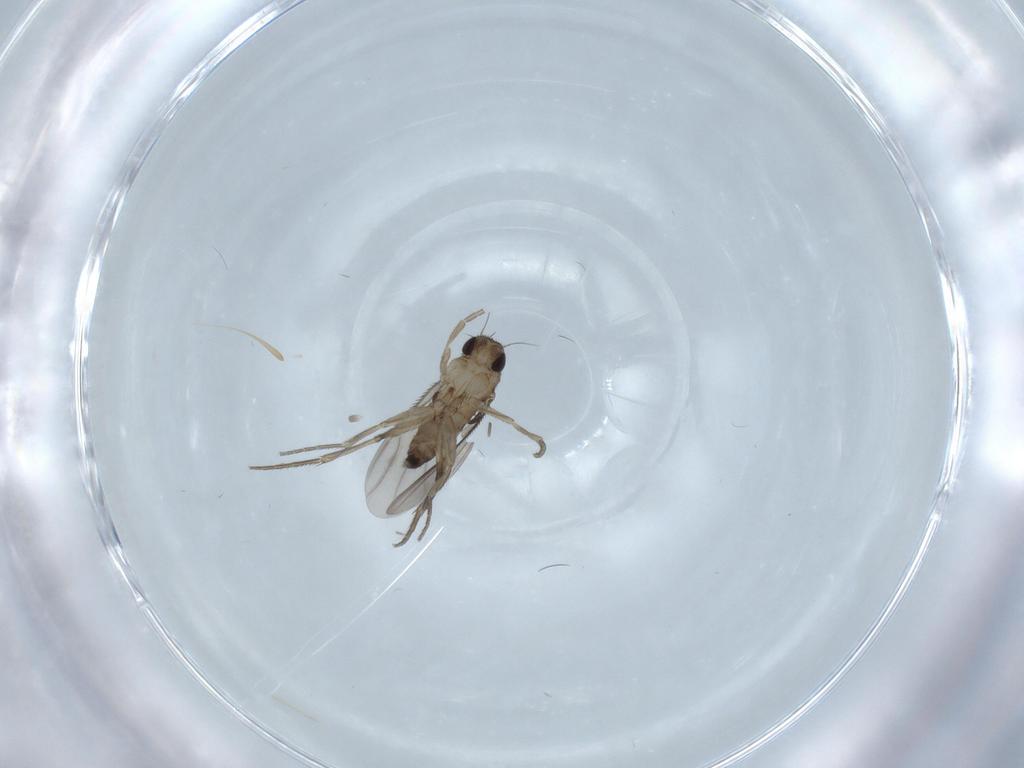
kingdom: Animalia
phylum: Arthropoda
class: Insecta
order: Diptera
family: Phoridae
